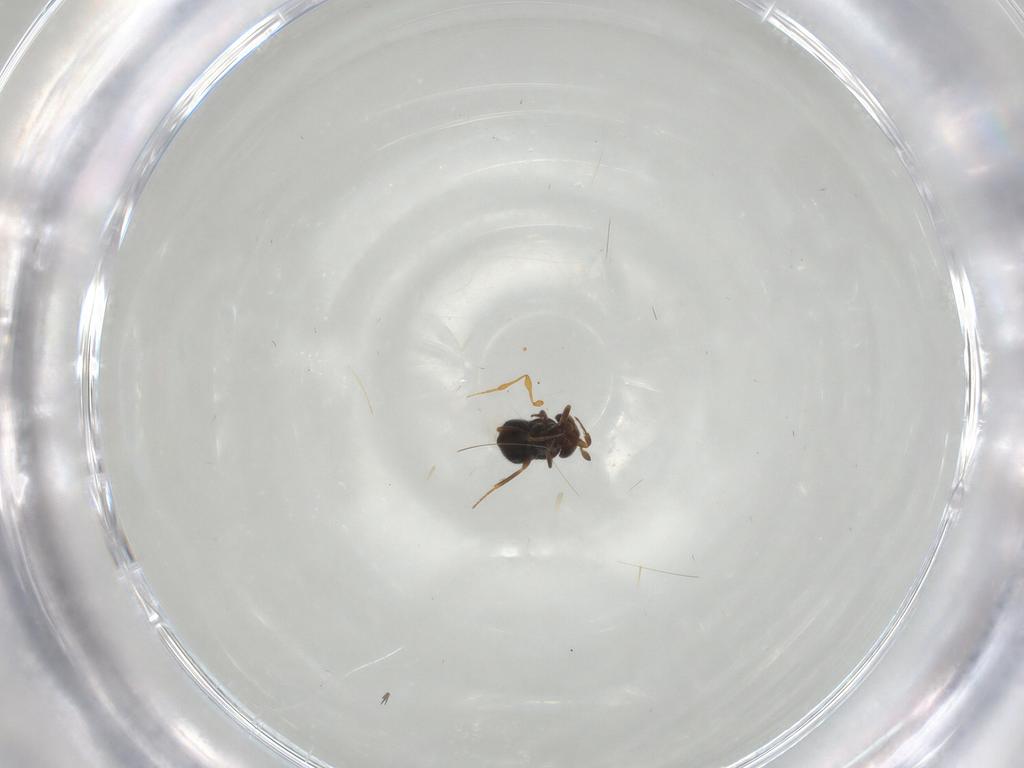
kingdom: Animalia
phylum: Arthropoda
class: Insecta
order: Hymenoptera
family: Scelionidae
